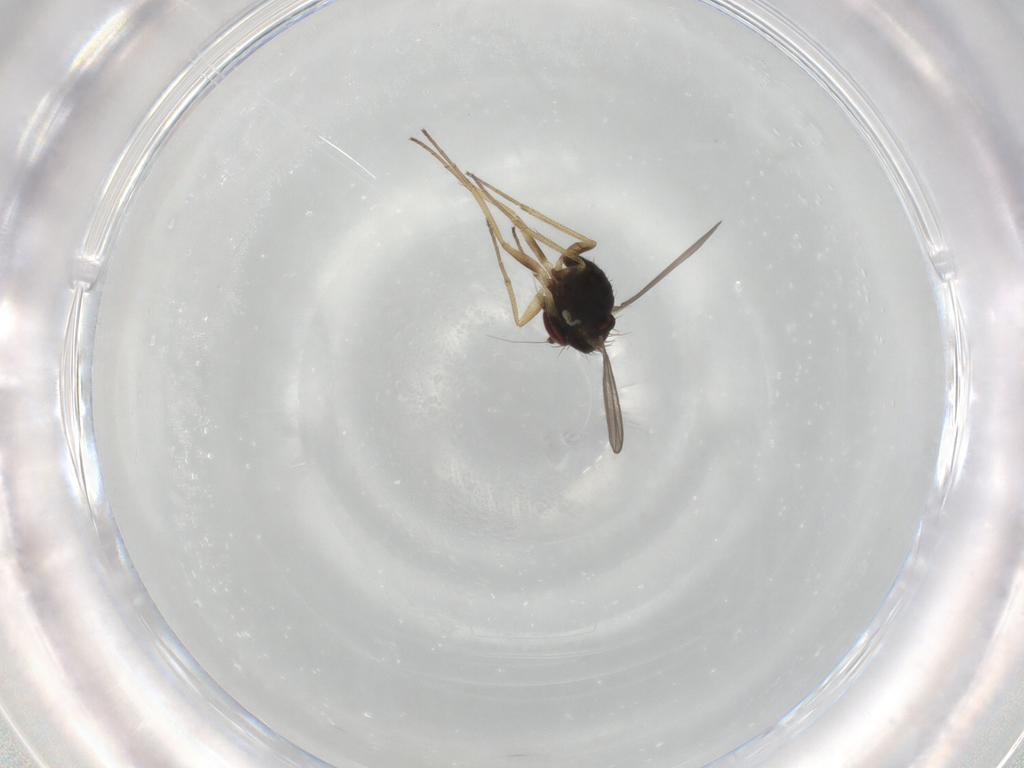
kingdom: Animalia
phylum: Arthropoda
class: Insecta
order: Diptera
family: Dolichopodidae
